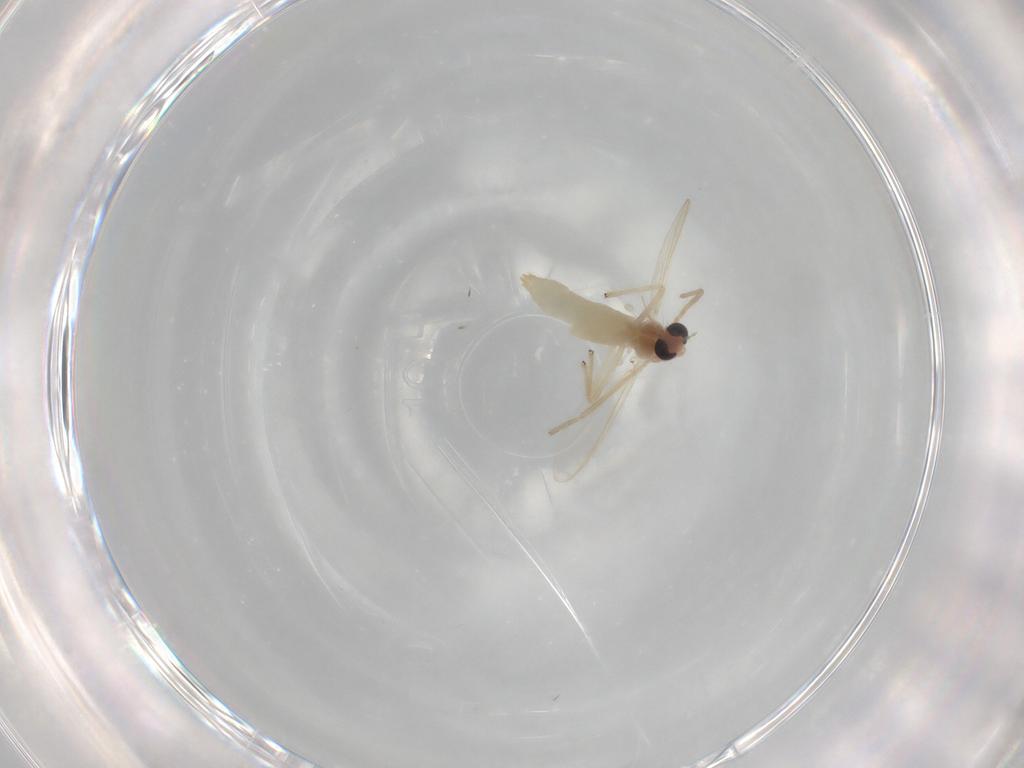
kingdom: Animalia
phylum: Arthropoda
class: Insecta
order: Diptera
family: Chironomidae
